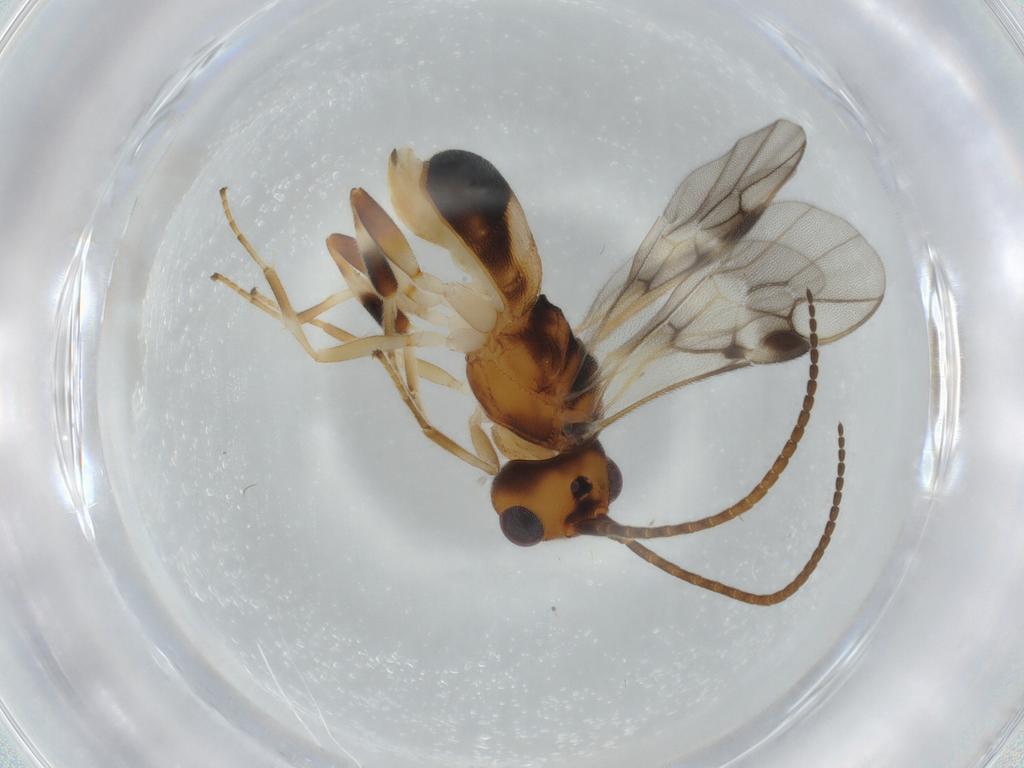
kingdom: Animalia
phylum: Arthropoda
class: Insecta
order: Hymenoptera
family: Braconidae
